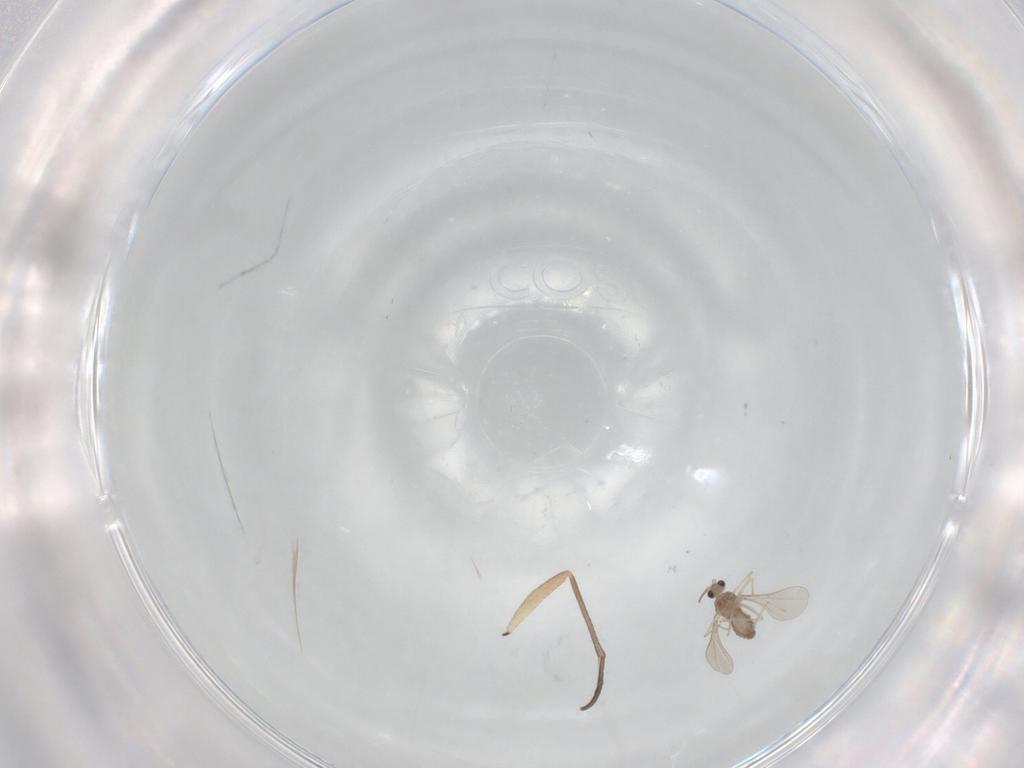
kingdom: Animalia
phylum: Arthropoda
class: Insecta
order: Diptera
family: Sciaridae
